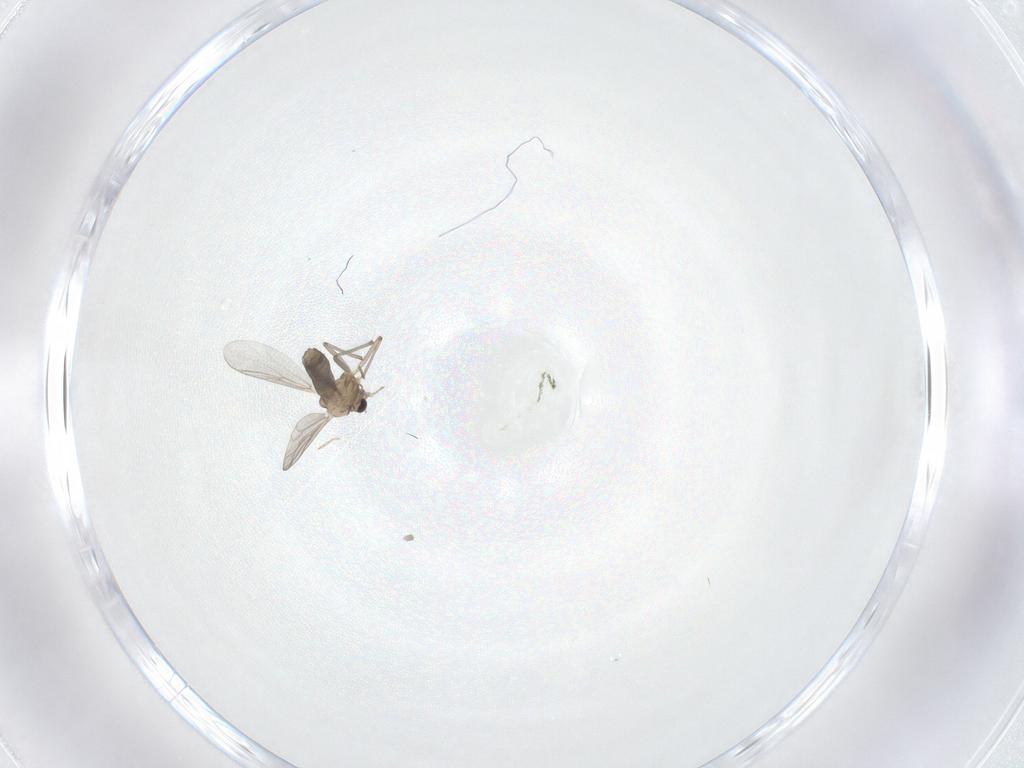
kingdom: Animalia
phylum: Arthropoda
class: Insecta
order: Diptera
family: Chironomidae
